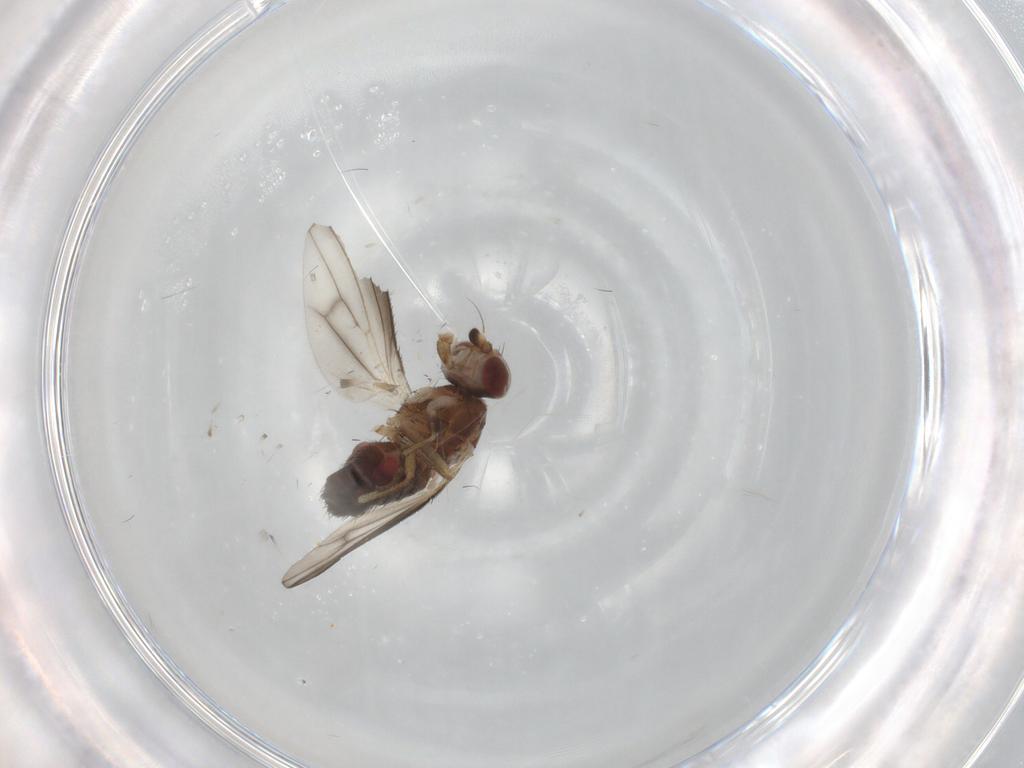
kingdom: Animalia
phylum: Arthropoda
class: Insecta
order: Diptera
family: Heleomyzidae
